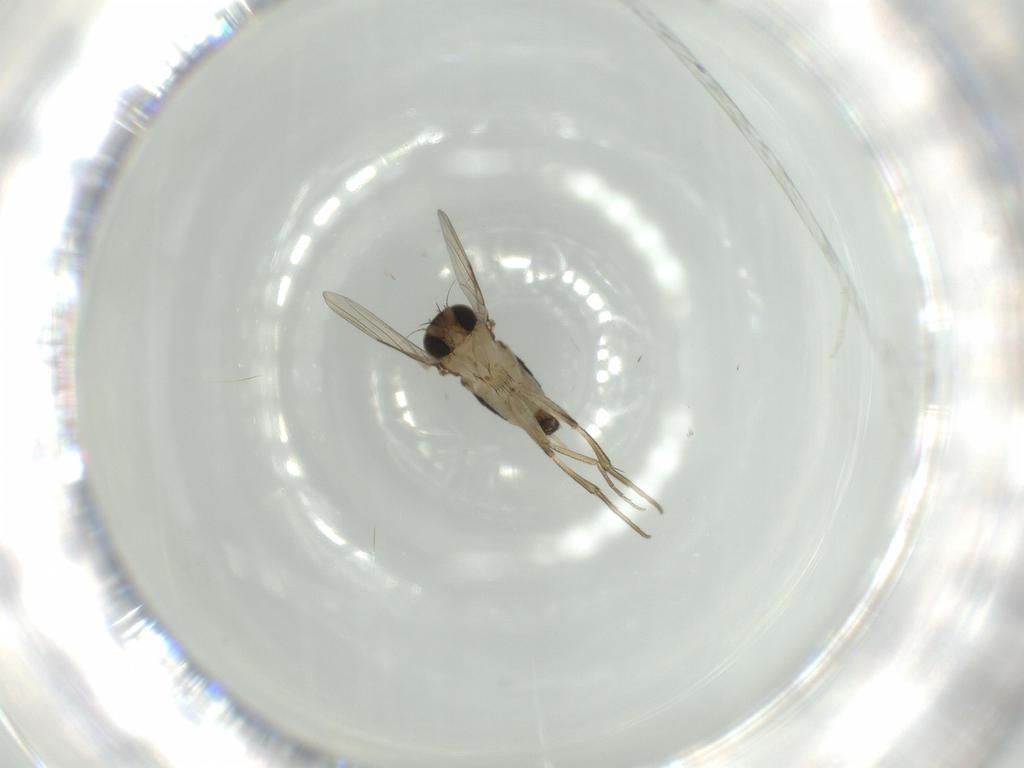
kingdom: Animalia
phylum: Arthropoda
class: Insecta
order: Diptera
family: Phoridae
